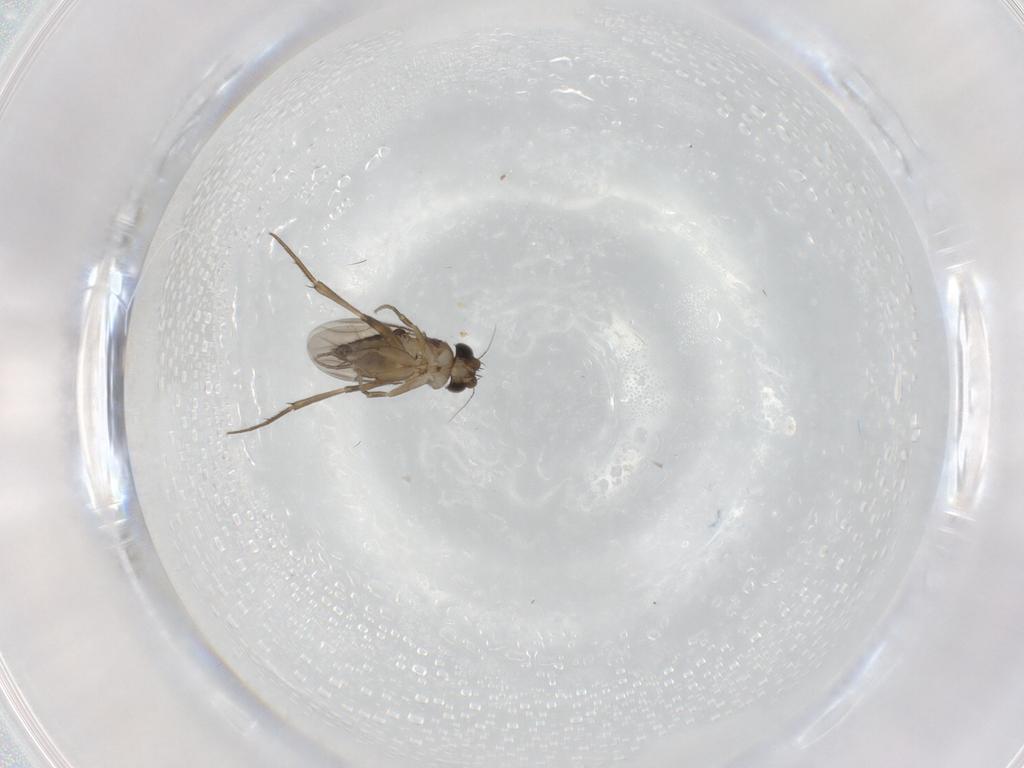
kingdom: Animalia
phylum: Arthropoda
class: Insecta
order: Diptera
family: Phoridae
